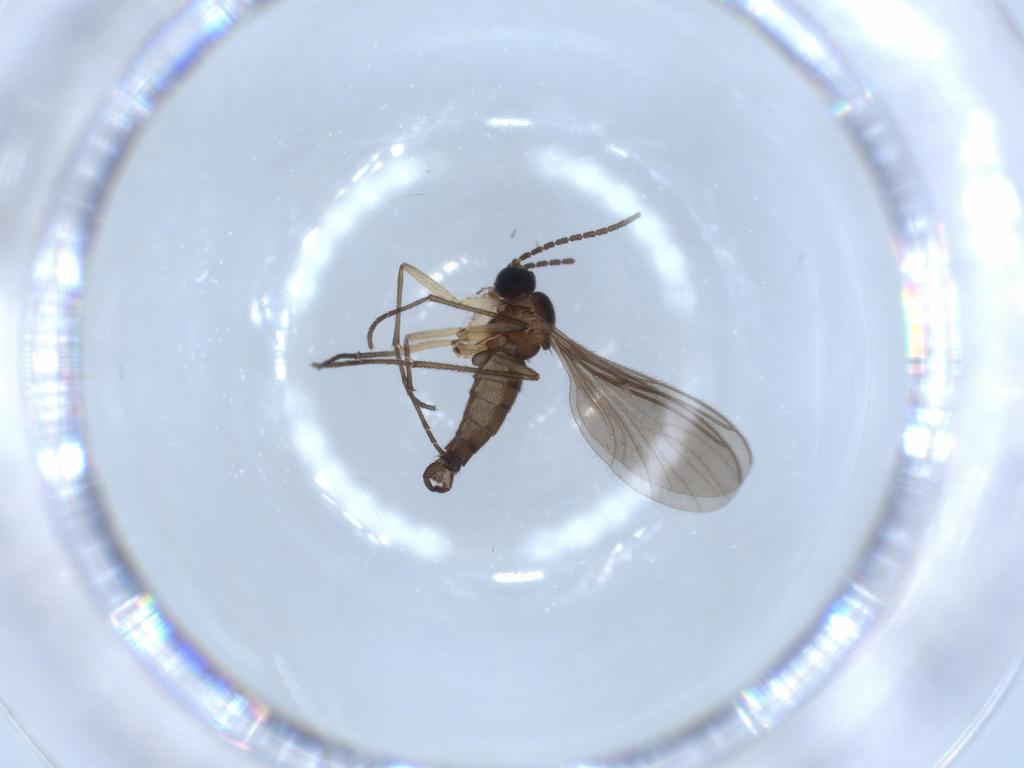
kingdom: Animalia
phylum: Arthropoda
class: Insecta
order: Diptera
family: Sciaridae
